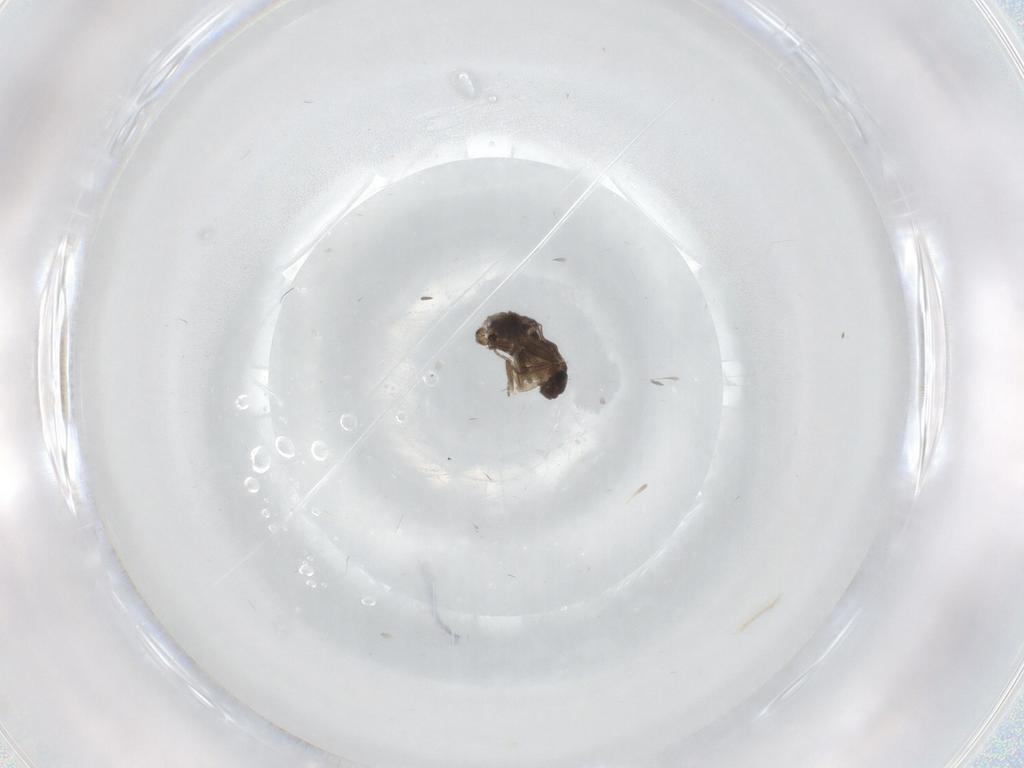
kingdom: Animalia
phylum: Arthropoda
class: Insecta
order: Diptera
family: Chironomidae
